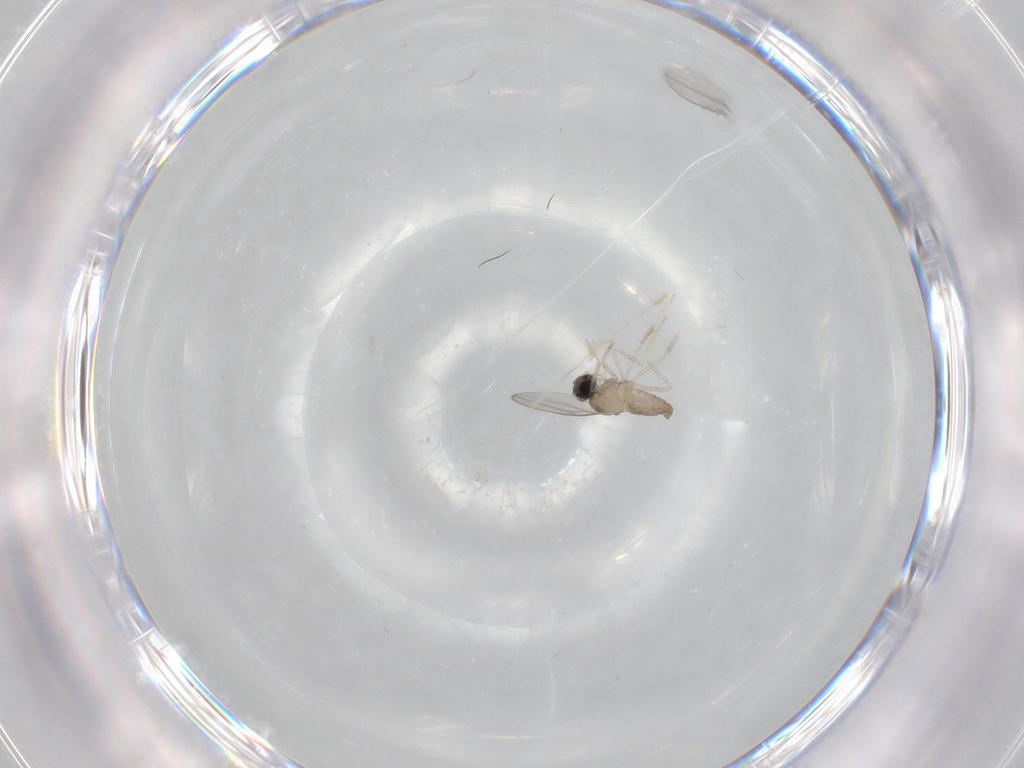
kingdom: Animalia
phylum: Arthropoda
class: Insecta
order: Diptera
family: Cecidomyiidae
